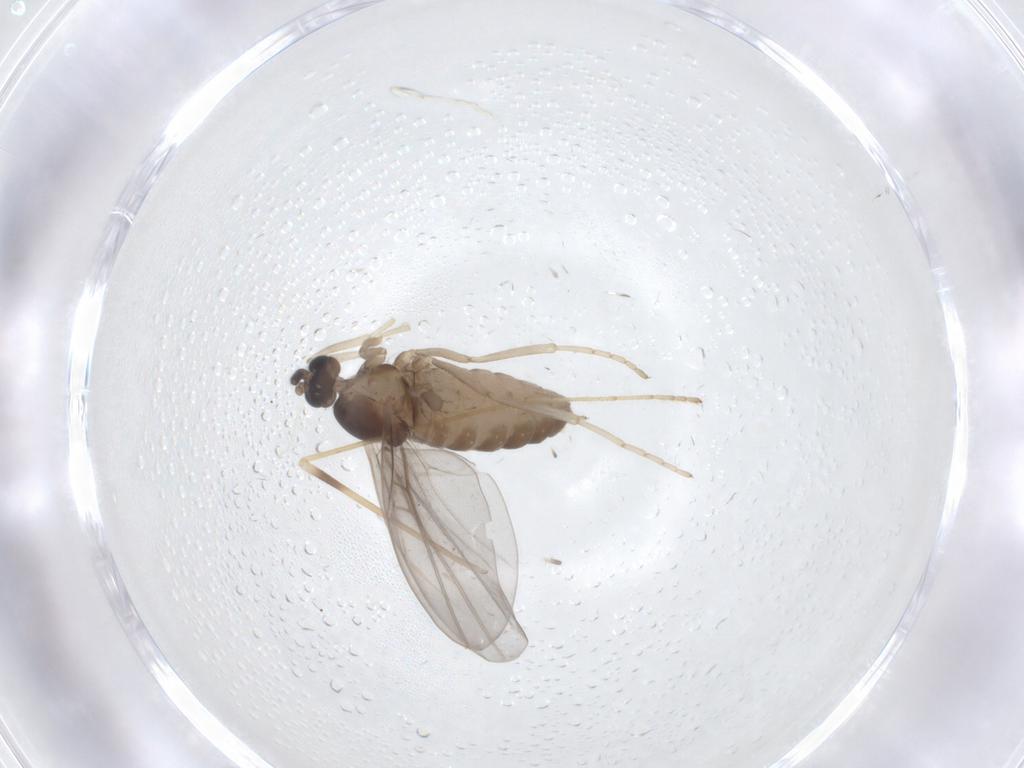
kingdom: Animalia
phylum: Arthropoda
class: Insecta
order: Diptera
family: Limoniidae
